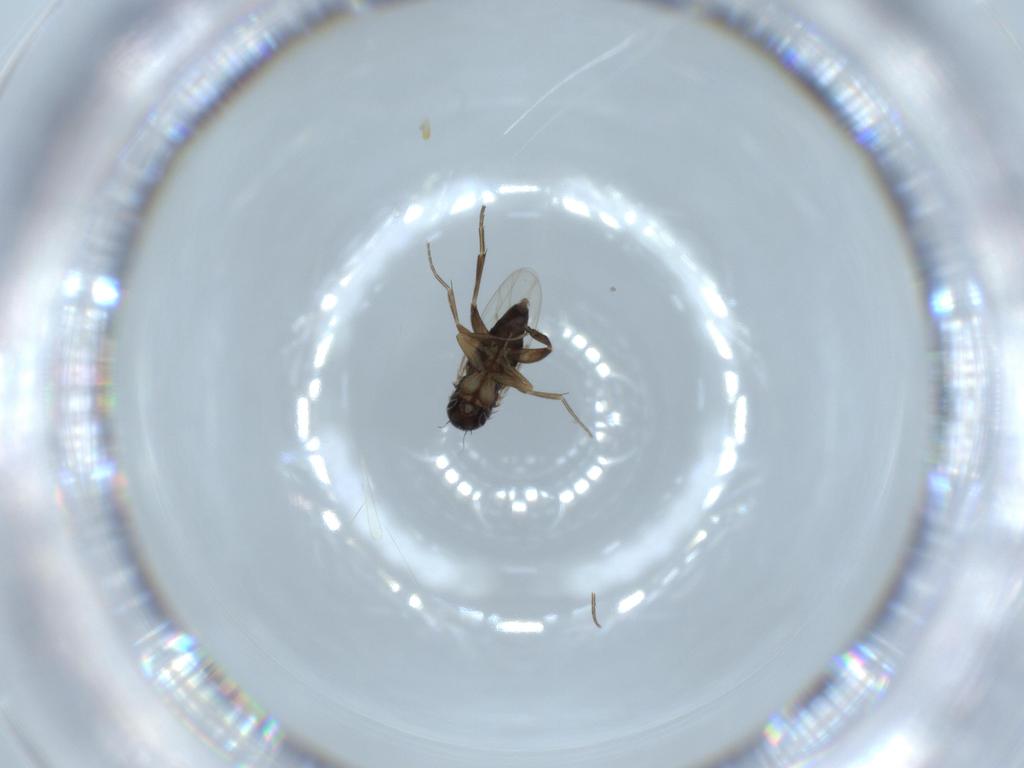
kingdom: Animalia
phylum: Arthropoda
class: Insecta
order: Diptera
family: Phoridae
